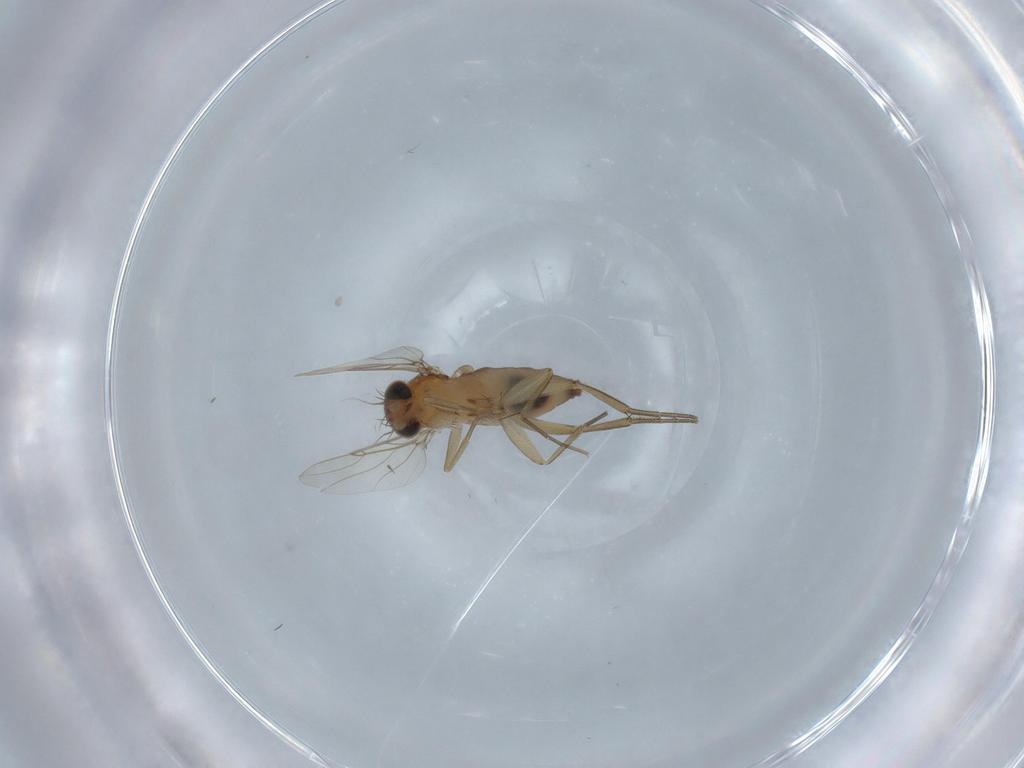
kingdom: Animalia
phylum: Arthropoda
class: Insecta
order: Diptera
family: Phoridae
